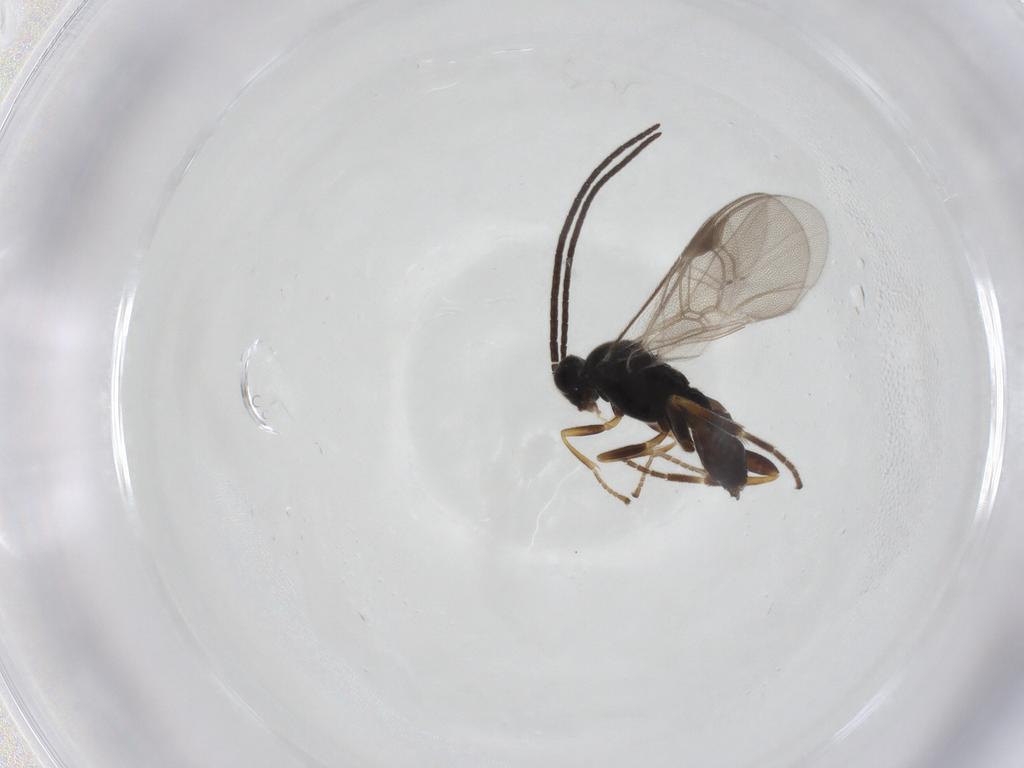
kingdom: Animalia
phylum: Arthropoda
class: Insecta
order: Hymenoptera
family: Braconidae
